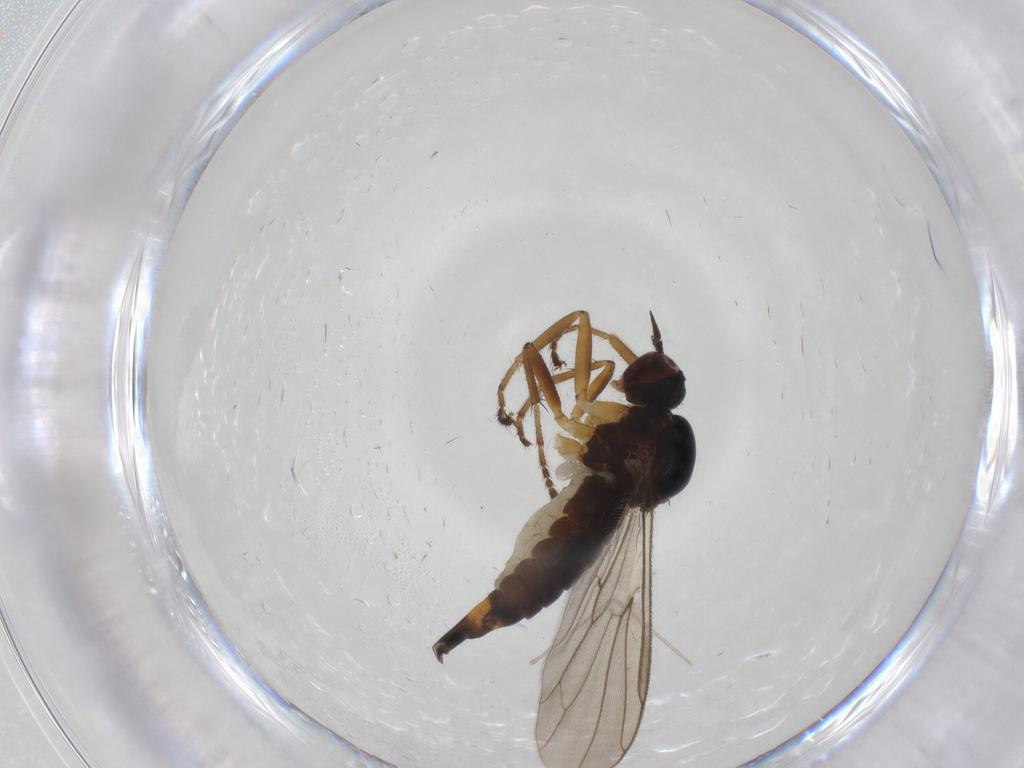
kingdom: Animalia
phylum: Arthropoda
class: Insecta
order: Diptera
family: Hybotidae
